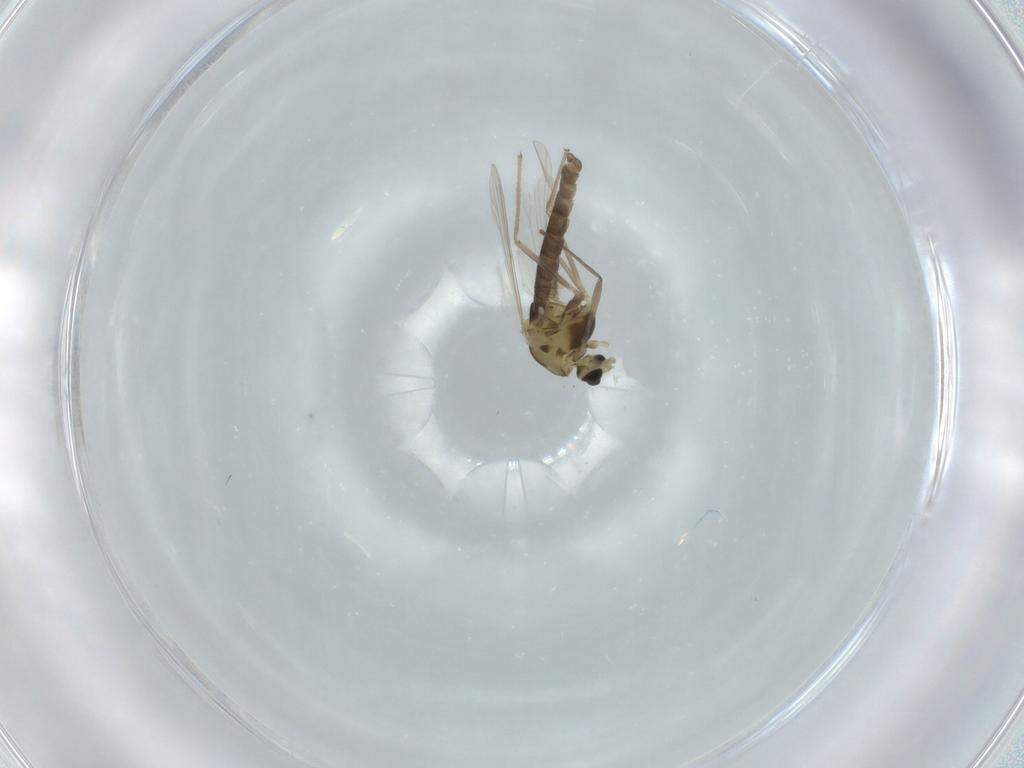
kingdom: Animalia
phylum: Arthropoda
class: Insecta
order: Diptera
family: Chironomidae
